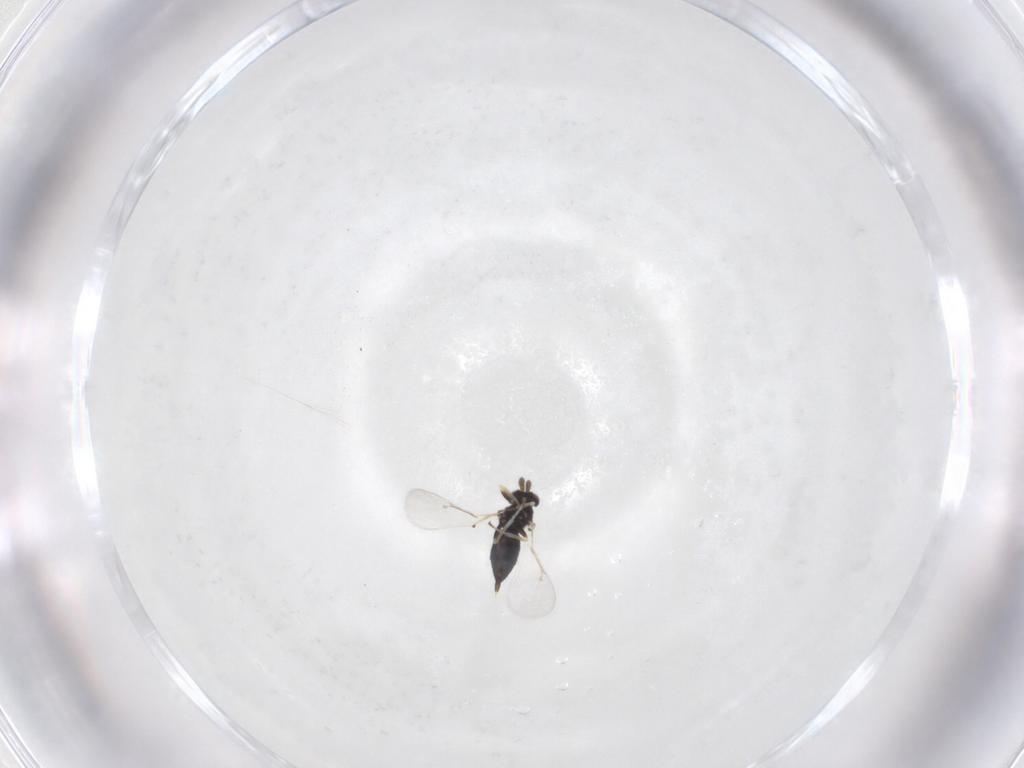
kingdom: Animalia
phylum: Arthropoda
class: Insecta
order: Hymenoptera
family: Eulophidae
